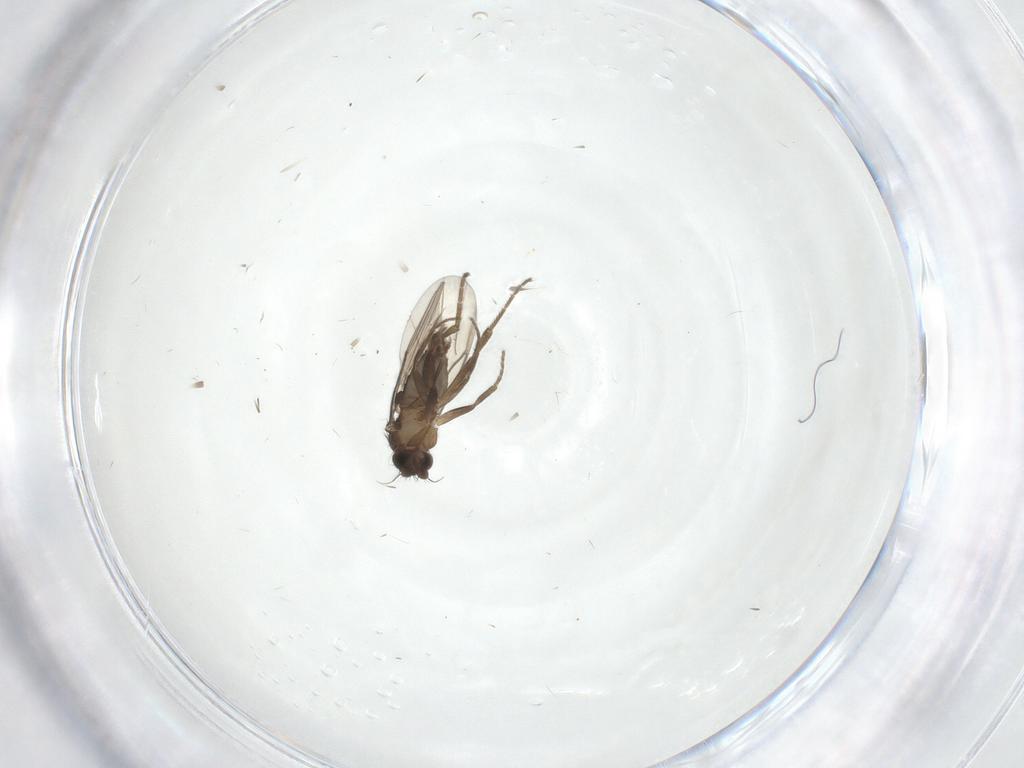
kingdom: Animalia
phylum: Arthropoda
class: Insecta
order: Diptera
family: Phoridae
